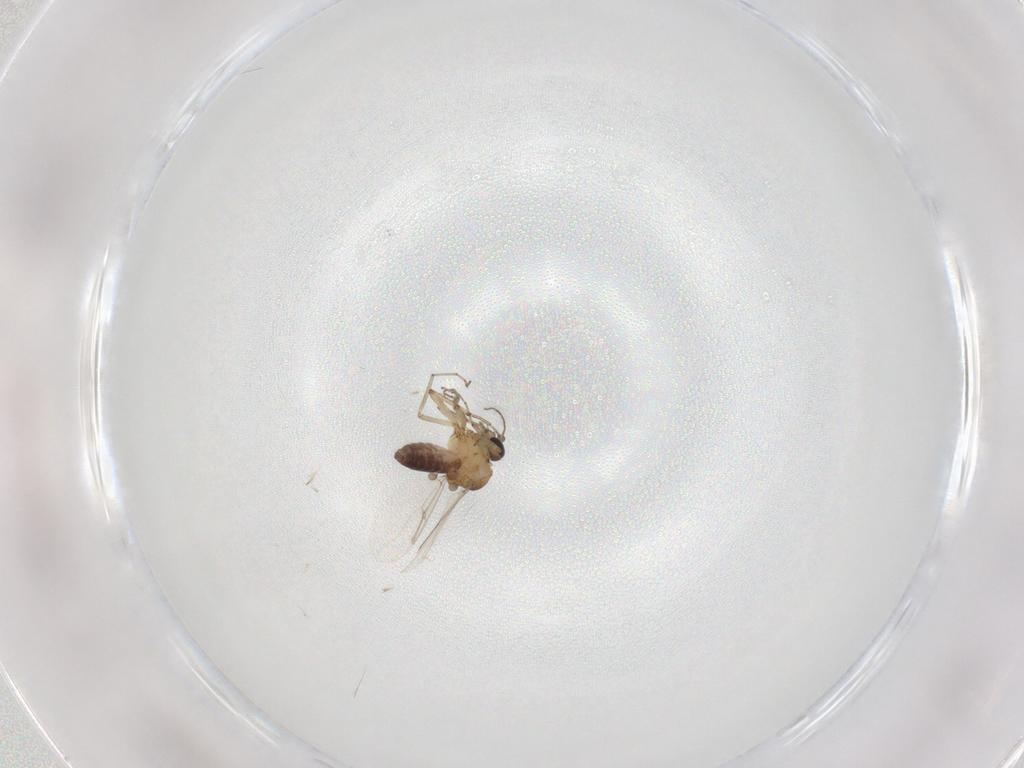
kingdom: Animalia
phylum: Arthropoda
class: Insecta
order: Diptera
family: Ceratopogonidae
